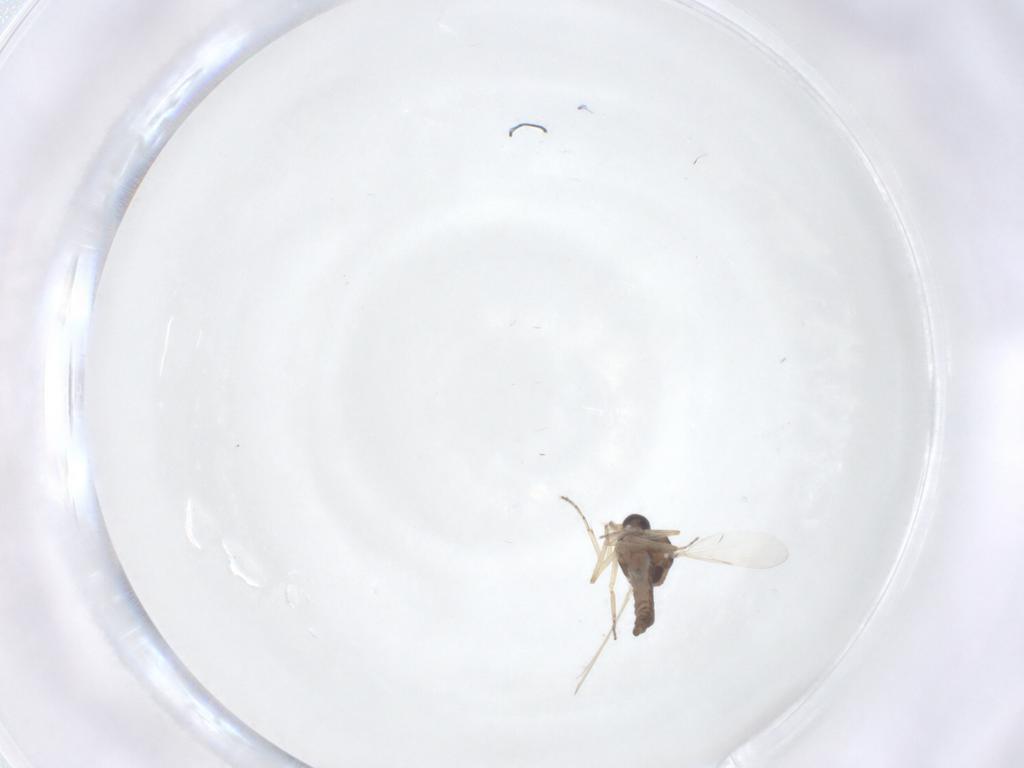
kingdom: Animalia
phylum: Arthropoda
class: Insecta
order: Diptera
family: Ceratopogonidae
